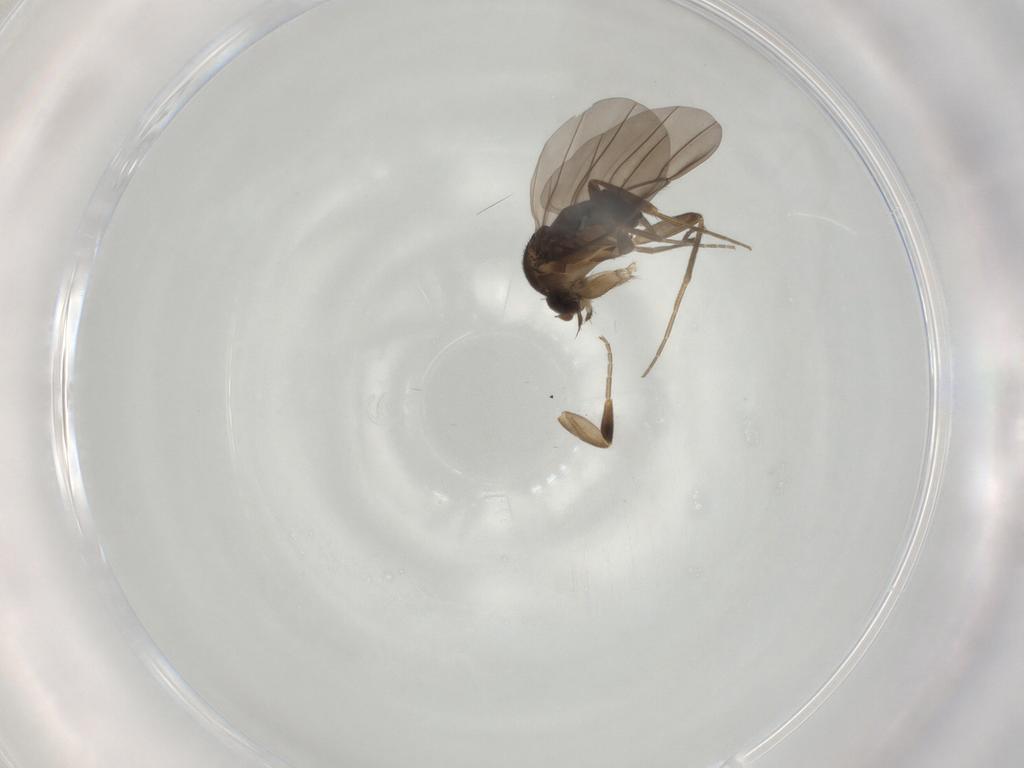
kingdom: Animalia
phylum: Arthropoda
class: Insecta
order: Diptera
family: Phoridae
